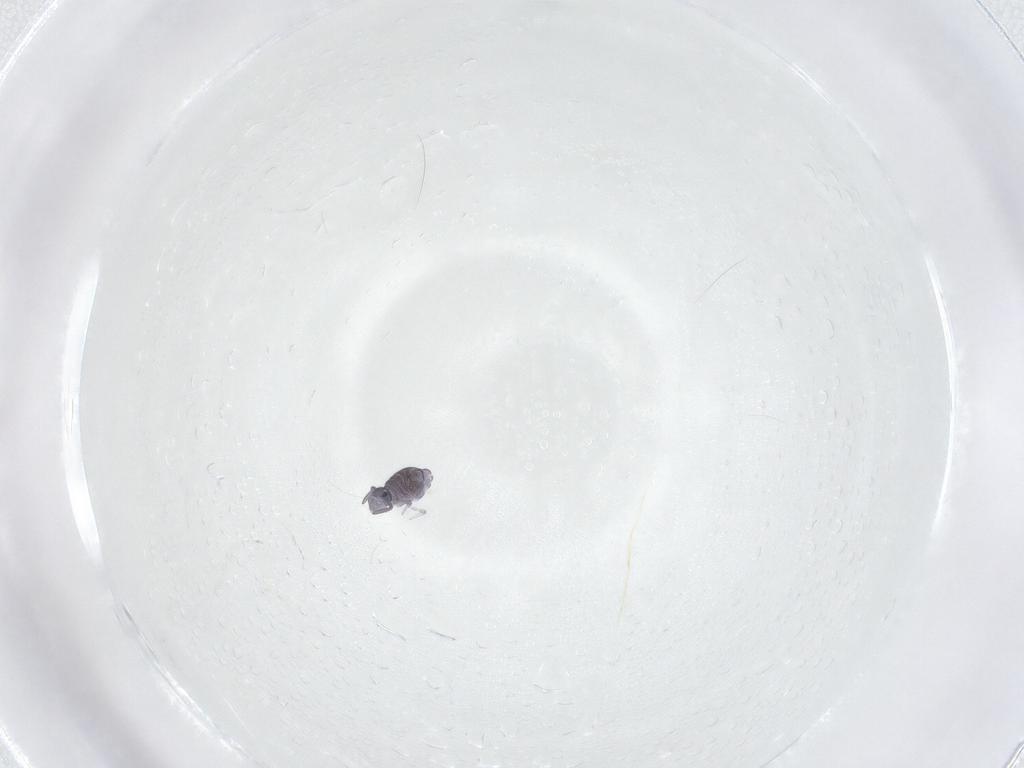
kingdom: Animalia
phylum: Arthropoda
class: Collembola
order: Symphypleona
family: Katiannidae
